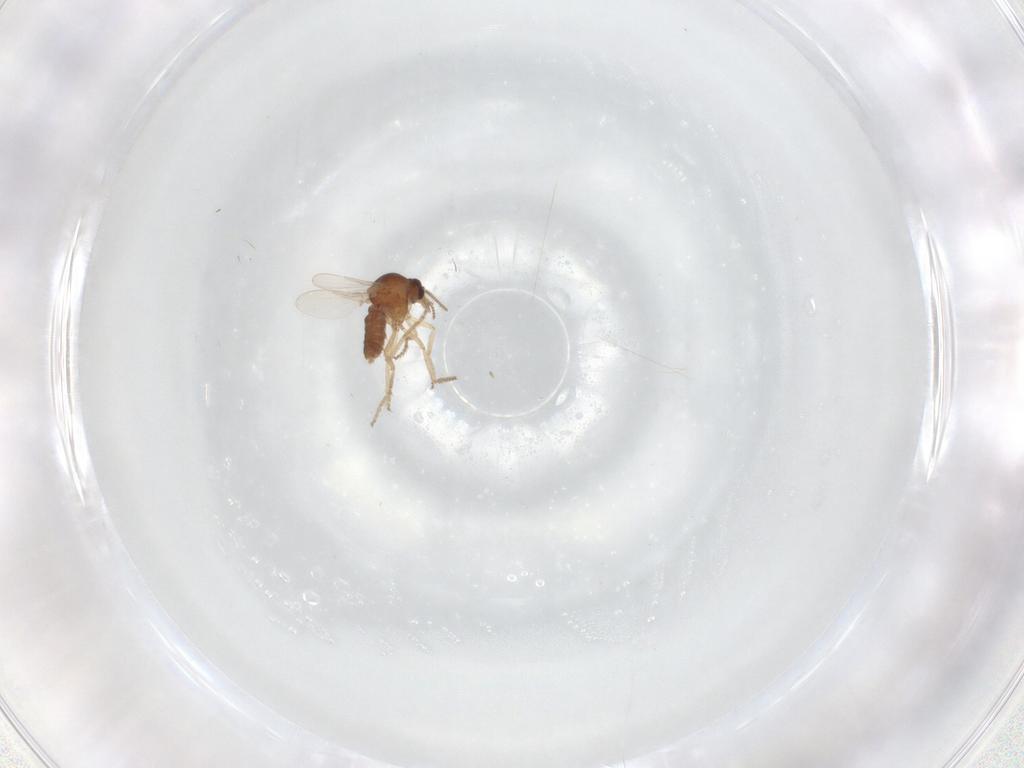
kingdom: Animalia
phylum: Arthropoda
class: Insecta
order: Diptera
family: Ceratopogonidae
